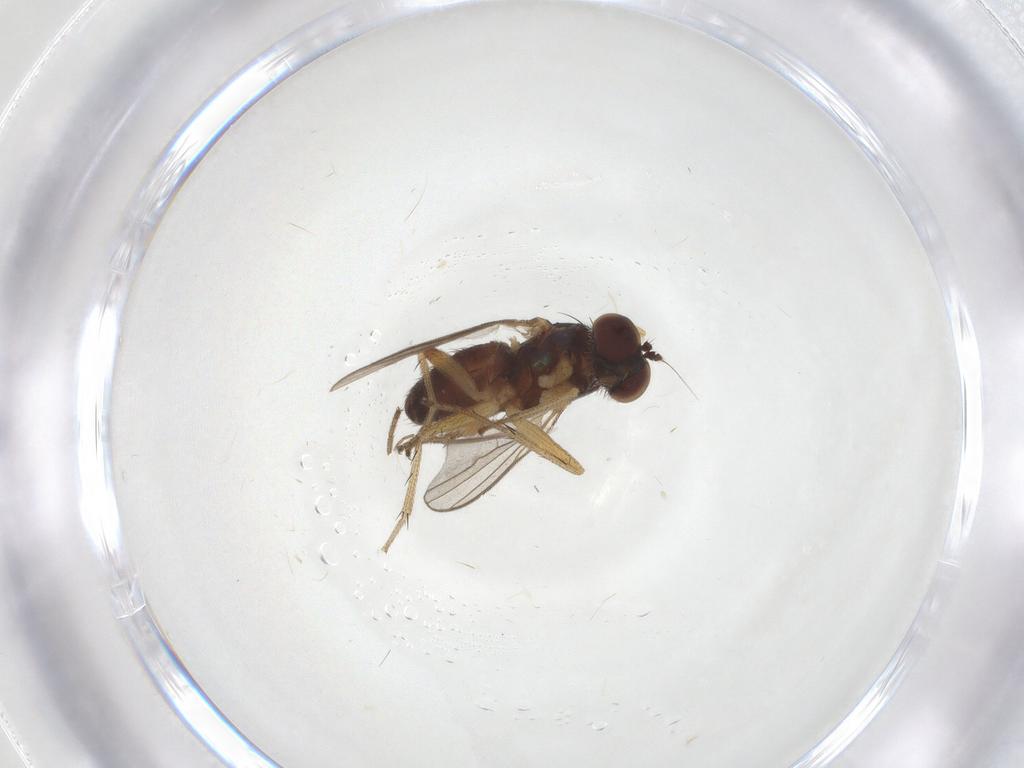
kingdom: Animalia
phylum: Arthropoda
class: Insecta
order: Diptera
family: Dolichopodidae
